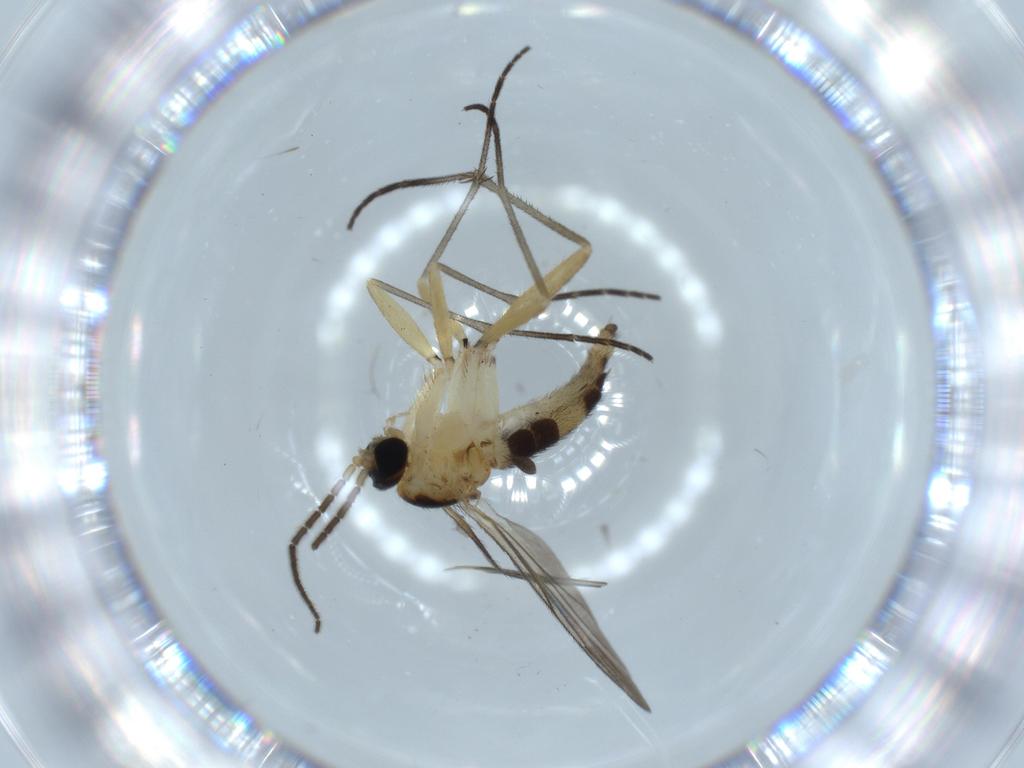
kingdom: Animalia
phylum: Arthropoda
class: Insecta
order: Diptera
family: Sciaridae
